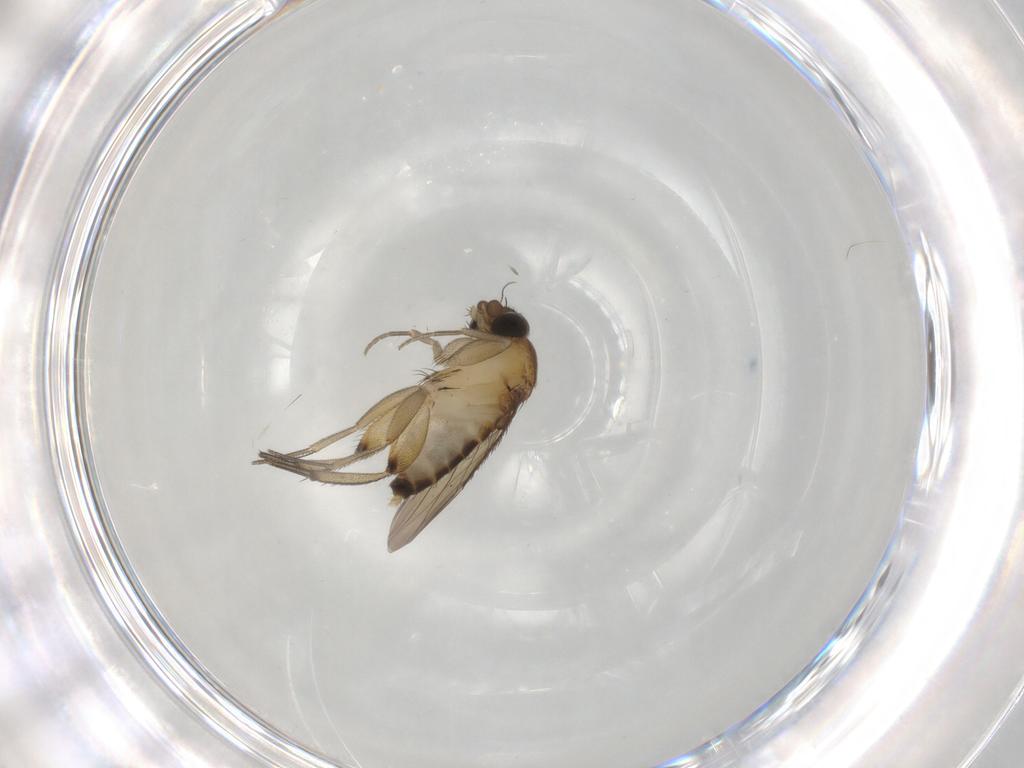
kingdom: Animalia
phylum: Arthropoda
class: Insecta
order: Diptera
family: Phoridae
